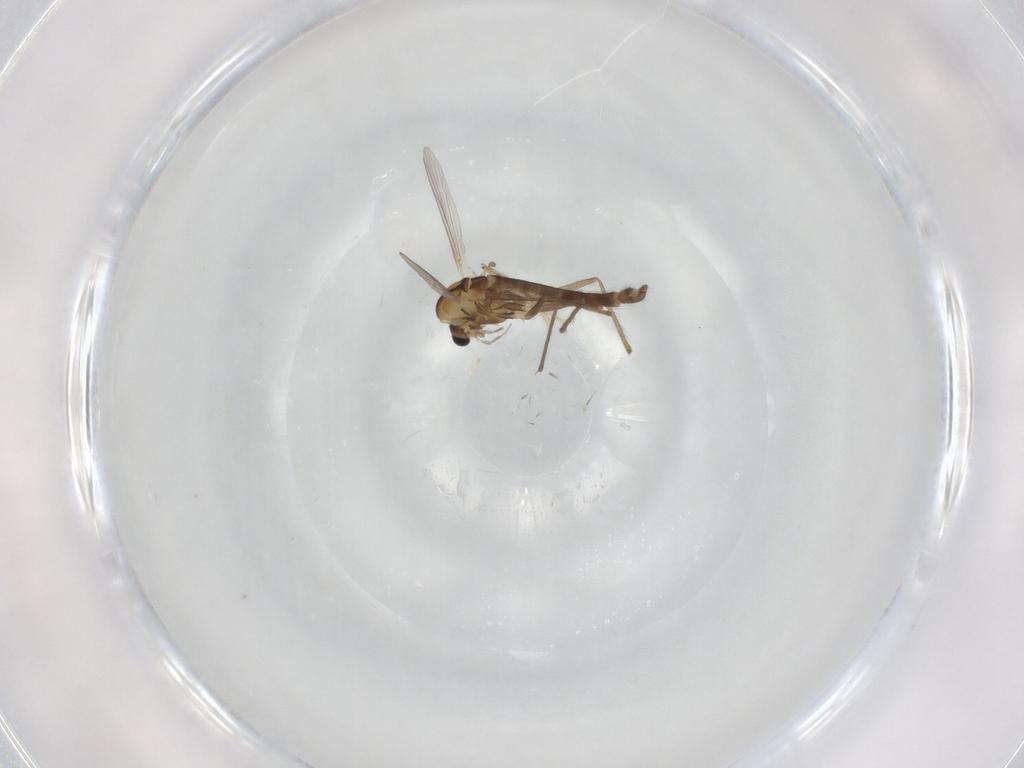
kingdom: Animalia
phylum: Arthropoda
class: Insecta
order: Diptera
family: Chironomidae
